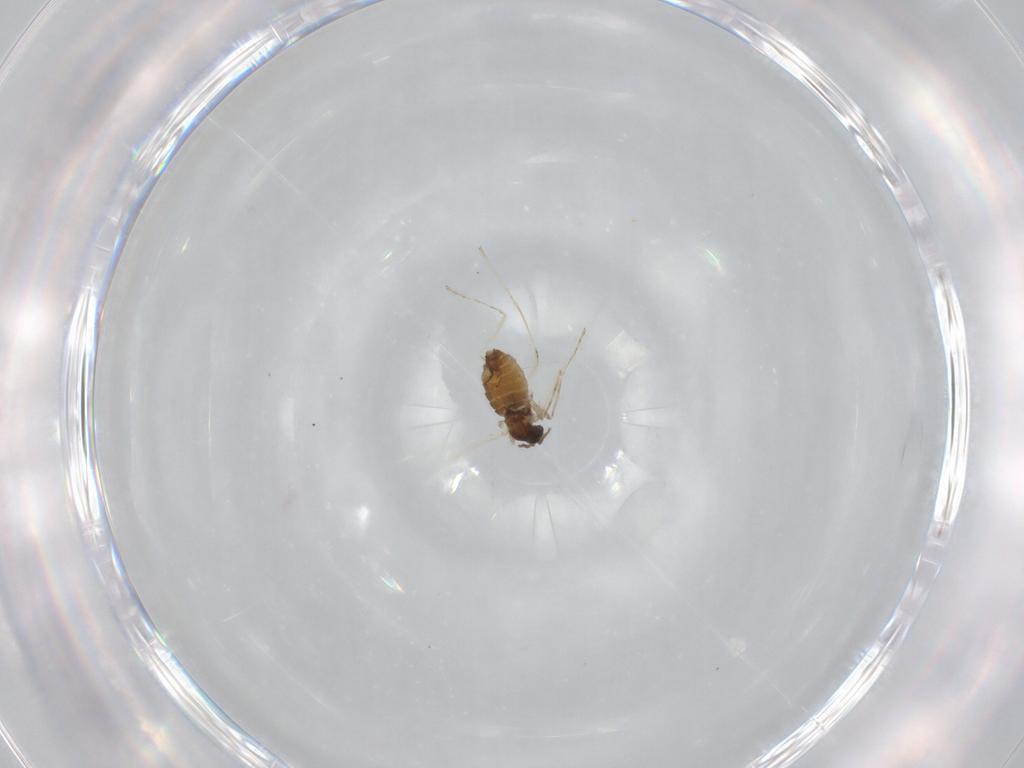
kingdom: Animalia
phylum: Arthropoda
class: Insecta
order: Diptera
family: Cecidomyiidae
